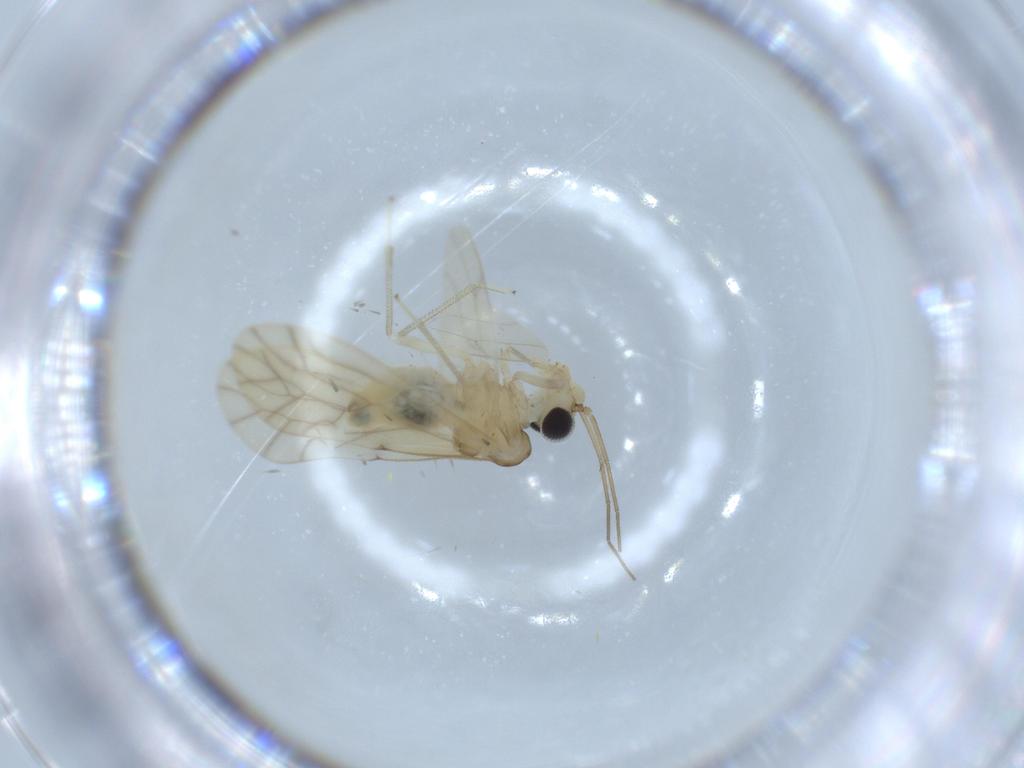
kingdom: Animalia
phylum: Arthropoda
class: Insecta
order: Psocodea
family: Caeciliusidae
